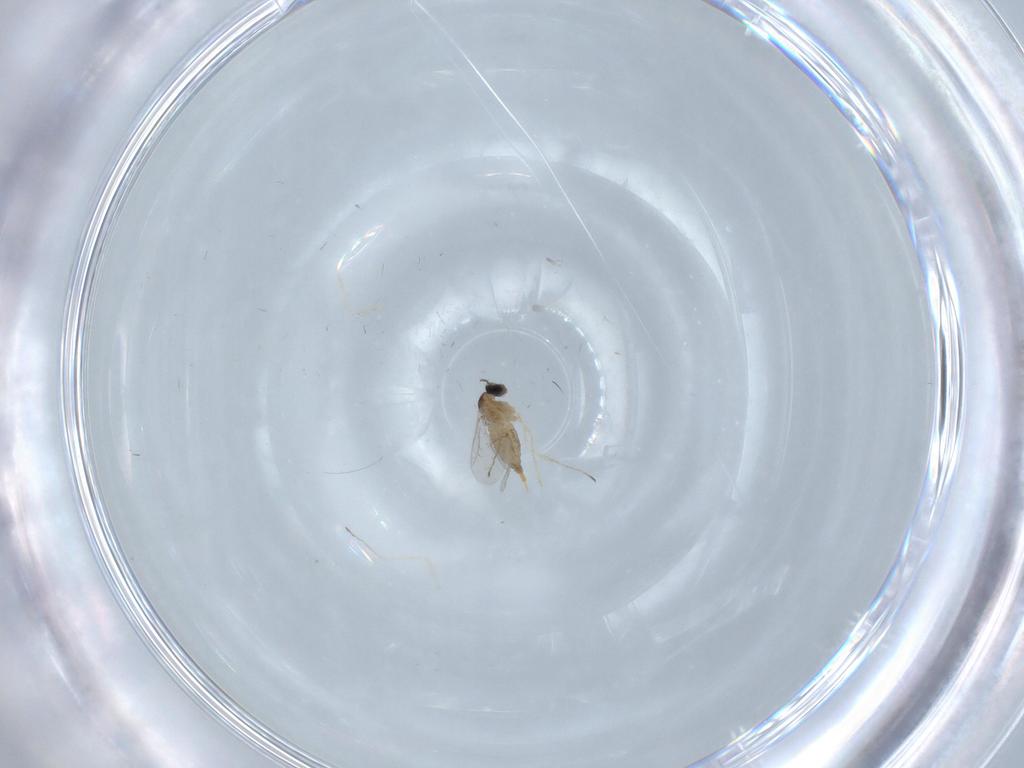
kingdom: Animalia
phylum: Arthropoda
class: Insecta
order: Diptera
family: Cecidomyiidae
